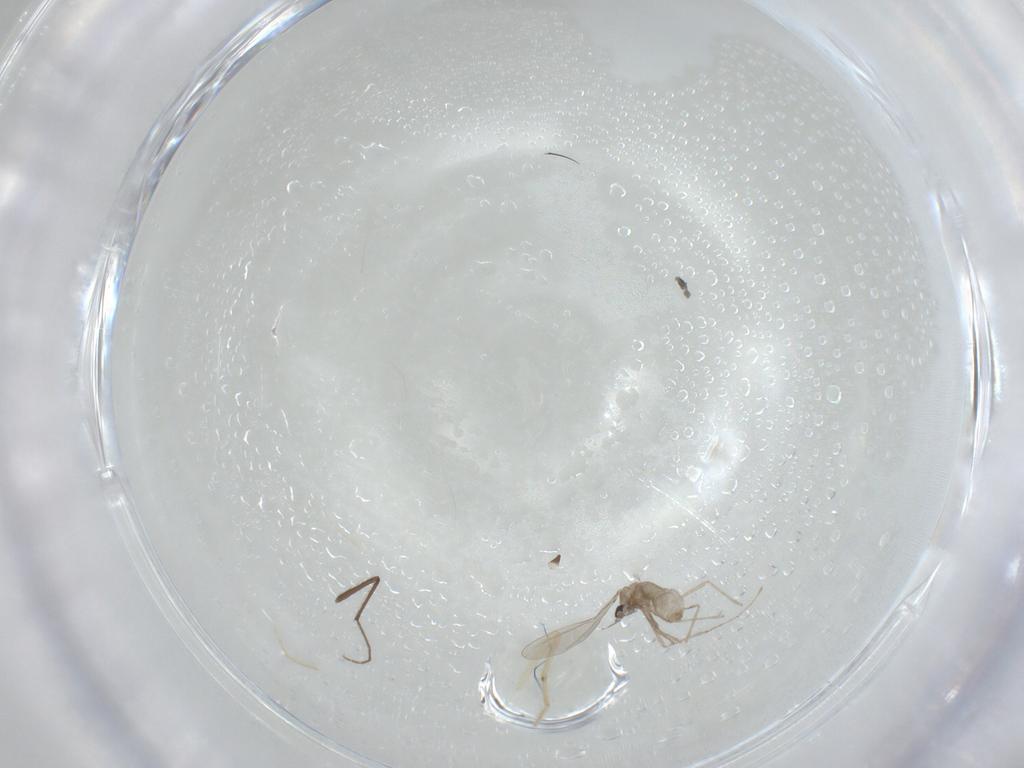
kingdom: Animalia
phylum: Arthropoda
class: Insecta
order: Diptera
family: Cecidomyiidae
